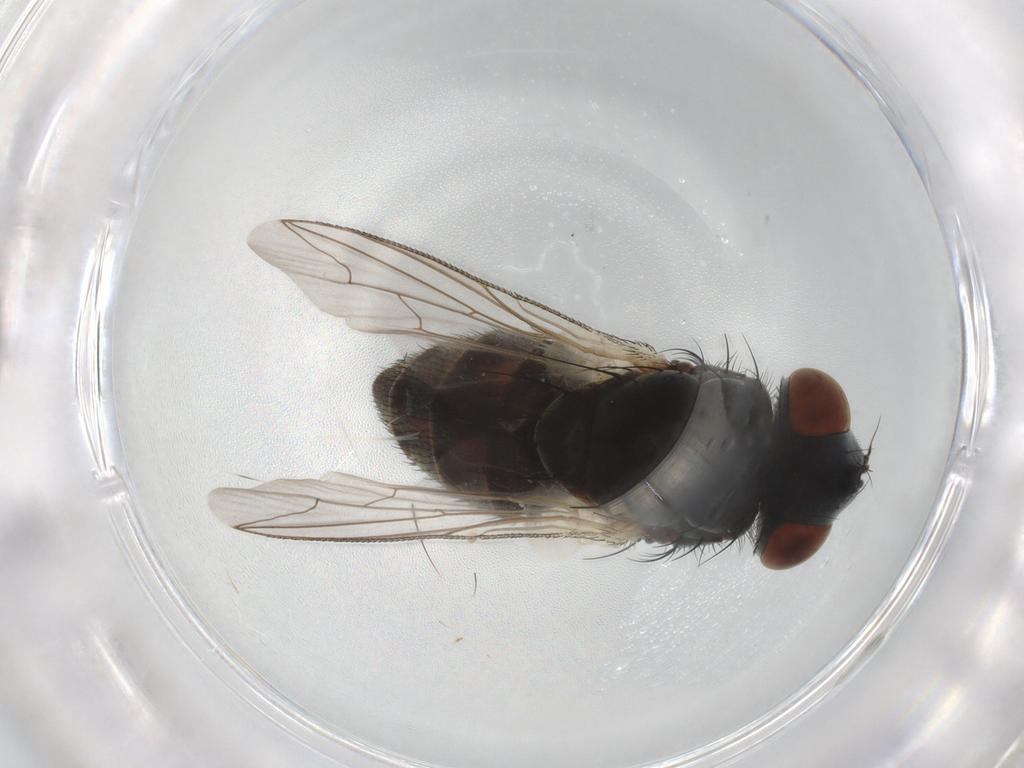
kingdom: Animalia
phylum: Arthropoda
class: Insecta
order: Diptera
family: Sarcophagidae
